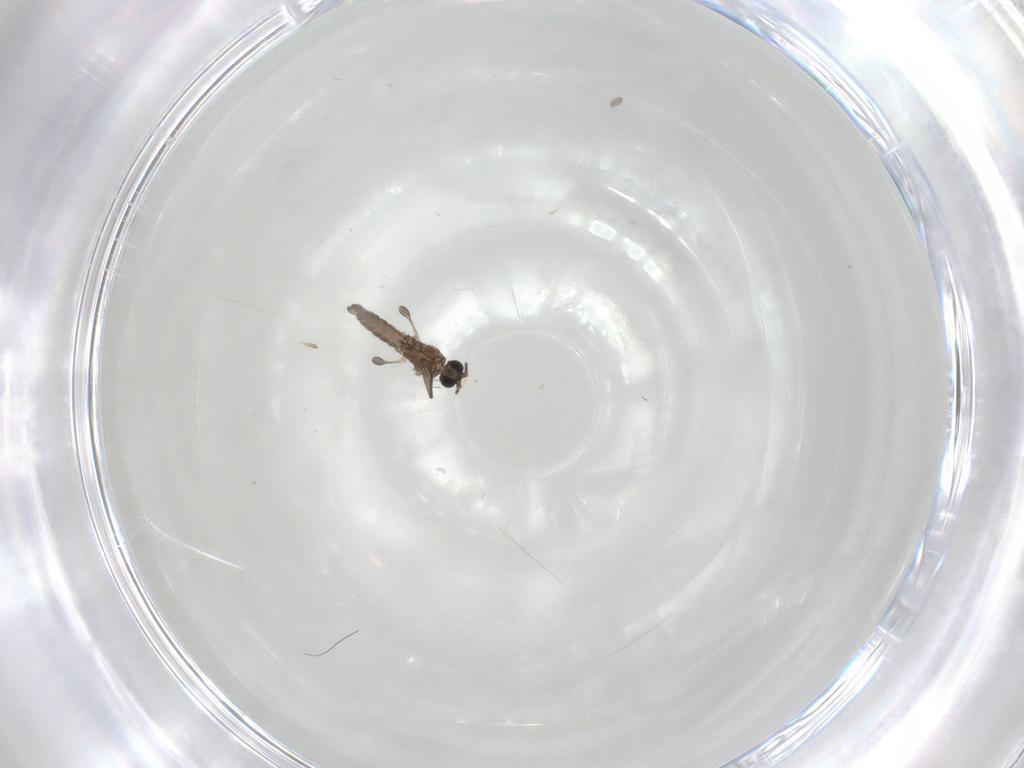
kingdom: Animalia
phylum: Arthropoda
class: Insecta
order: Diptera
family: Sciaridae
